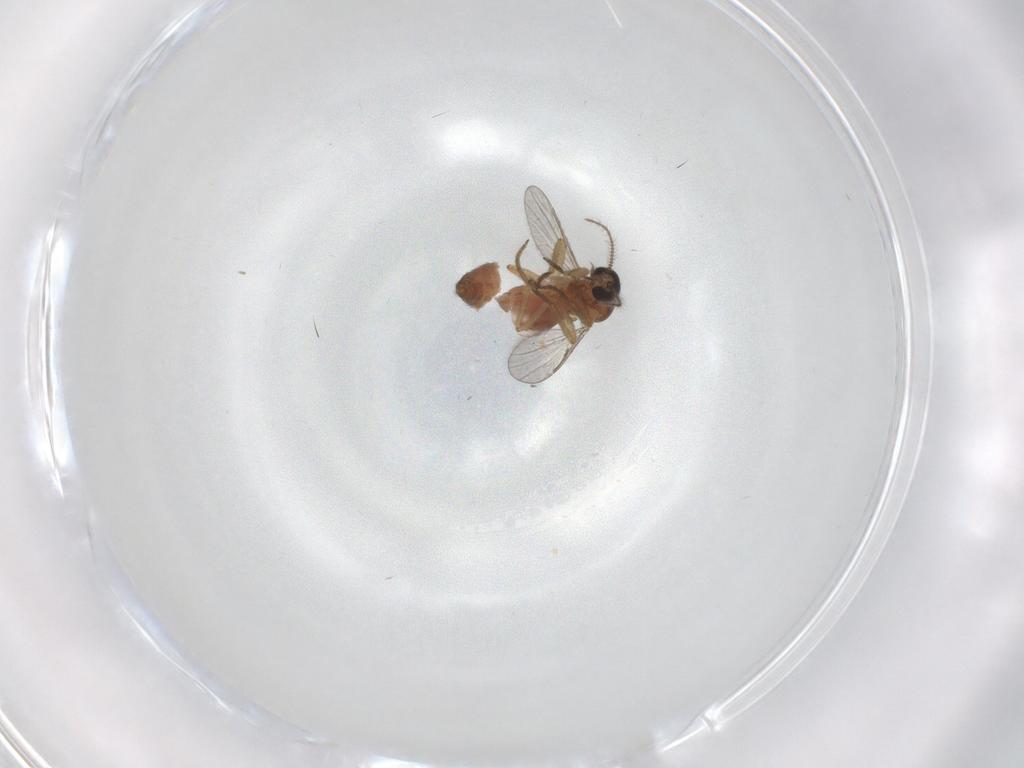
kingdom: Animalia
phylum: Arthropoda
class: Insecta
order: Diptera
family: Ceratopogonidae
